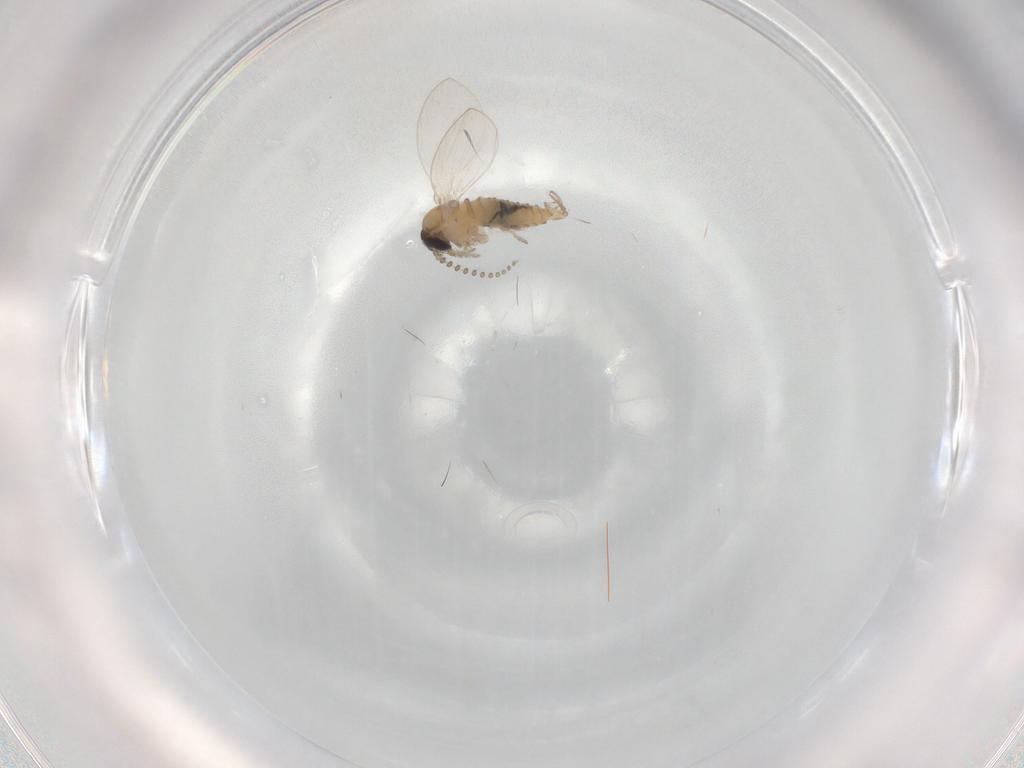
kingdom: Animalia
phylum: Arthropoda
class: Insecta
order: Diptera
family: Psychodidae
